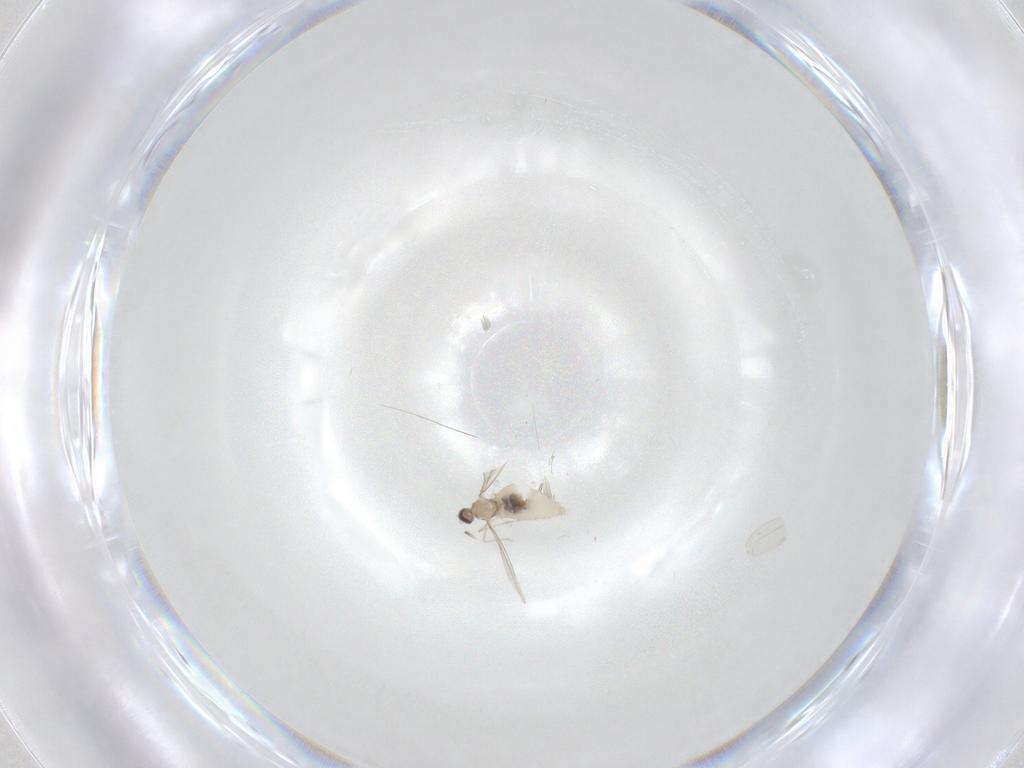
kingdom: Animalia
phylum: Arthropoda
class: Insecta
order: Diptera
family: Cecidomyiidae
